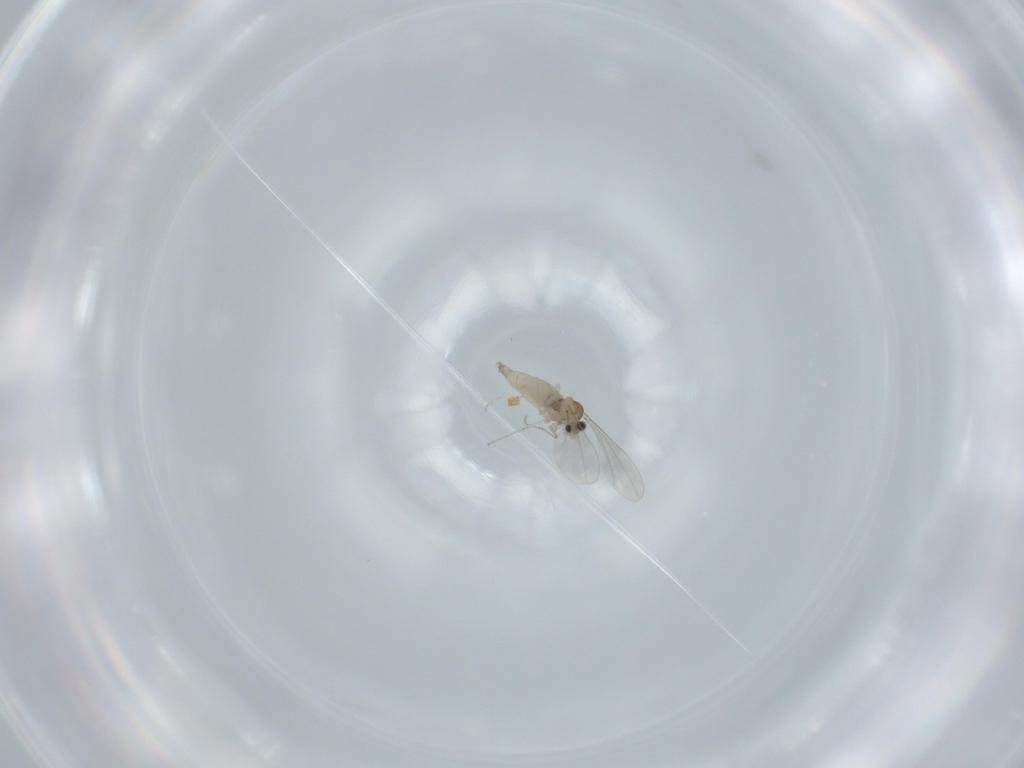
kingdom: Animalia
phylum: Arthropoda
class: Insecta
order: Diptera
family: Cecidomyiidae
